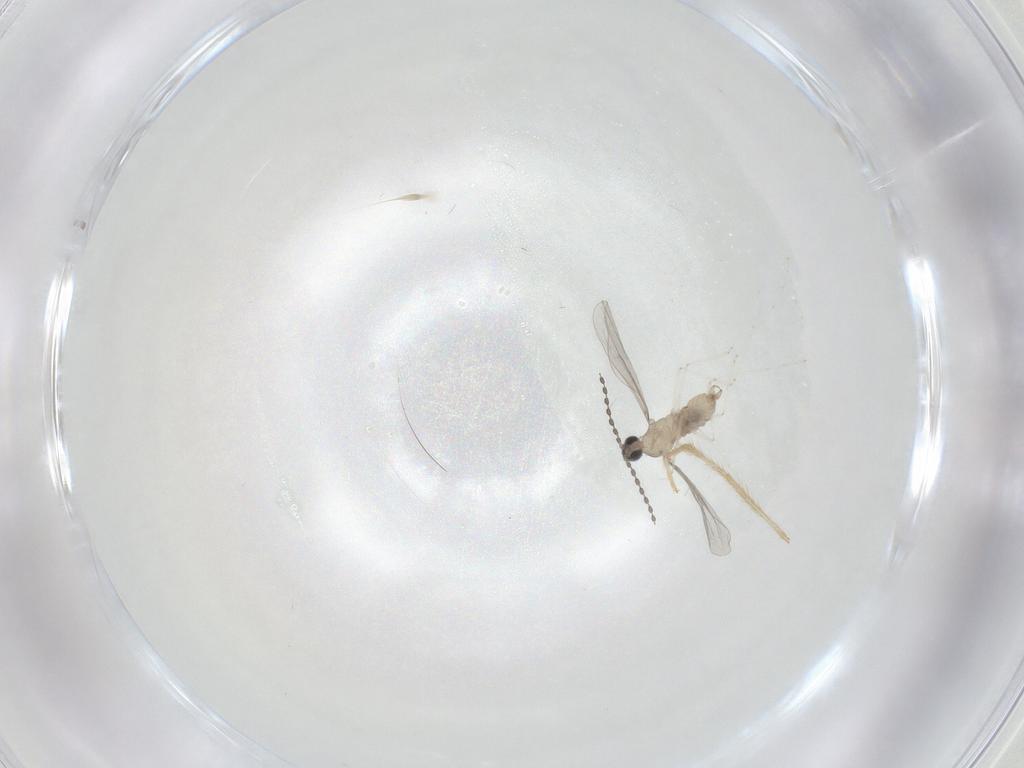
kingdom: Animalia
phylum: Arthropoda
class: Insecta
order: Diptera
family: Cecidomyiidae
